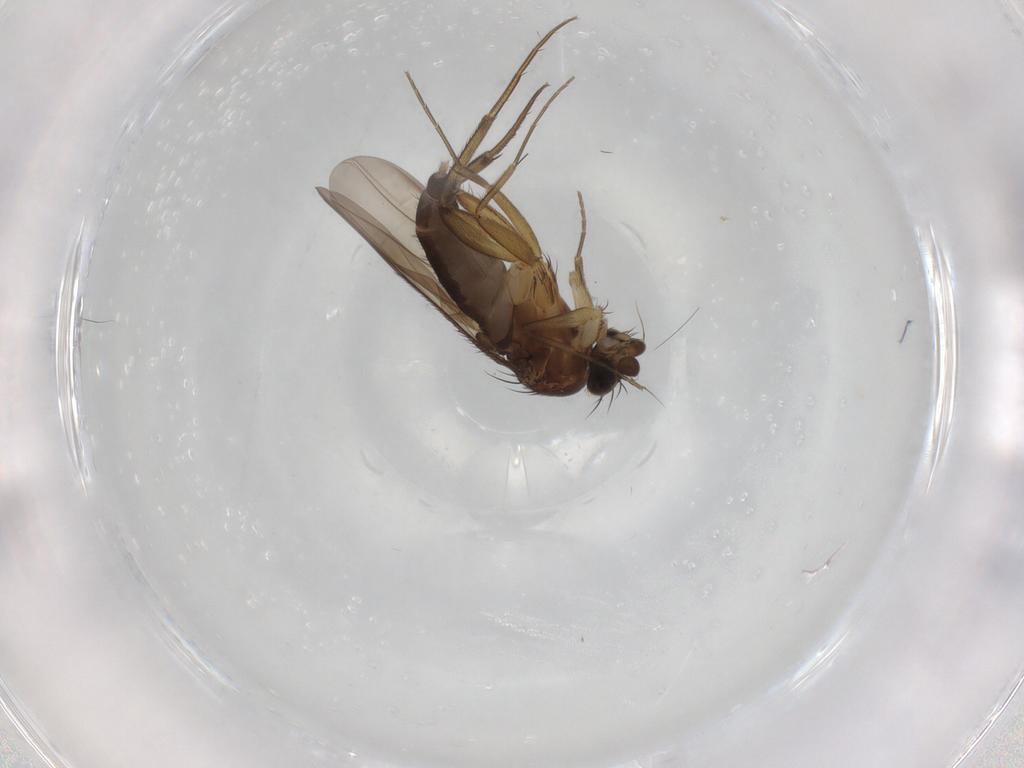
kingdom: Animalia
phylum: Arthropoda
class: Insecta
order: Diptera
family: Phoridae
